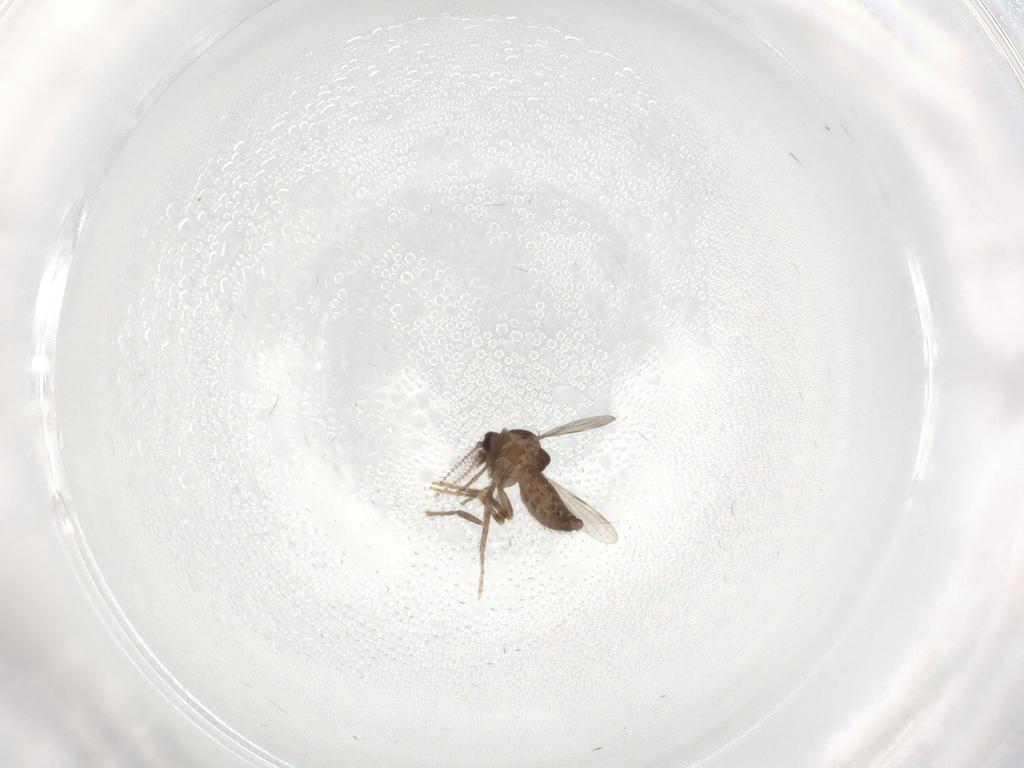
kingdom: Animalia
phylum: Arthropoda
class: Insecta
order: Diptera
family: Ceratopogonidae
